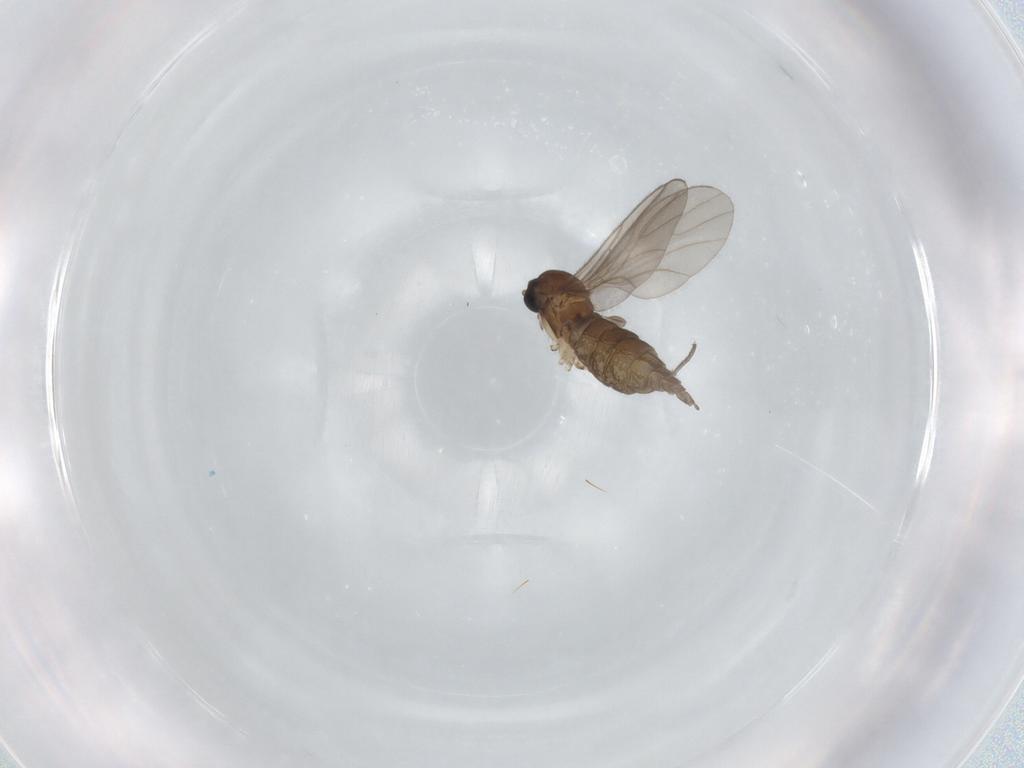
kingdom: Animalia
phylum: Arthropoda
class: Insecta
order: Diptera
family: Sciaridae
